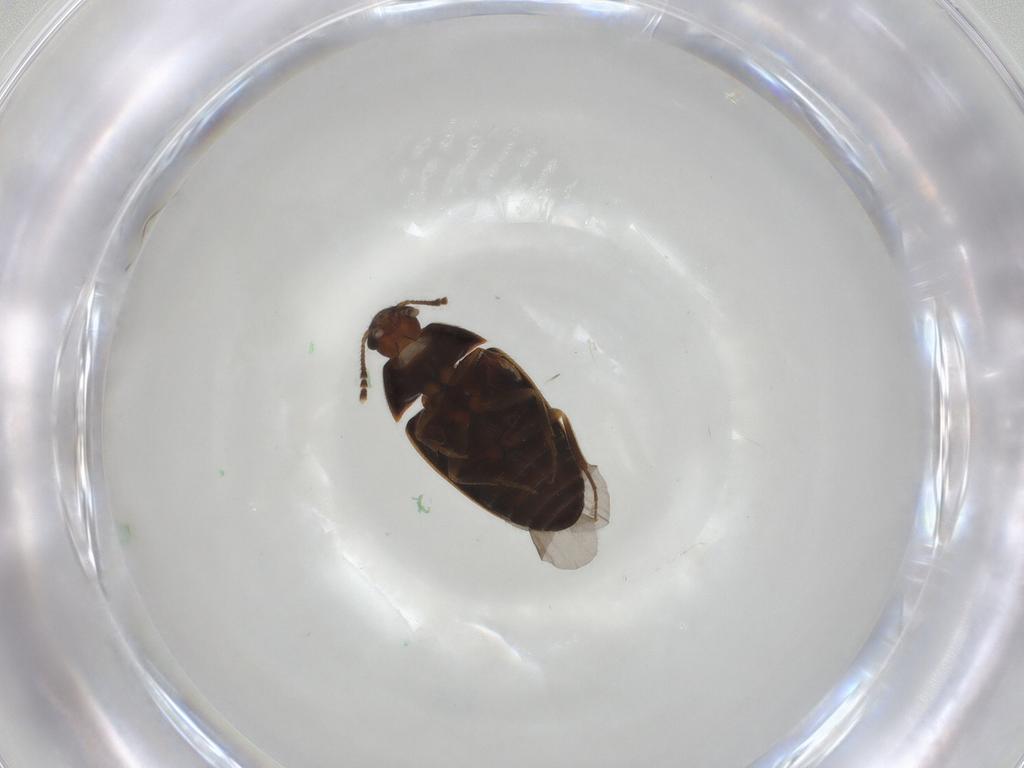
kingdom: Animalia
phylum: Arthropoda
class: Insecta
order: Coleoptera
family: Mycetophagidae
